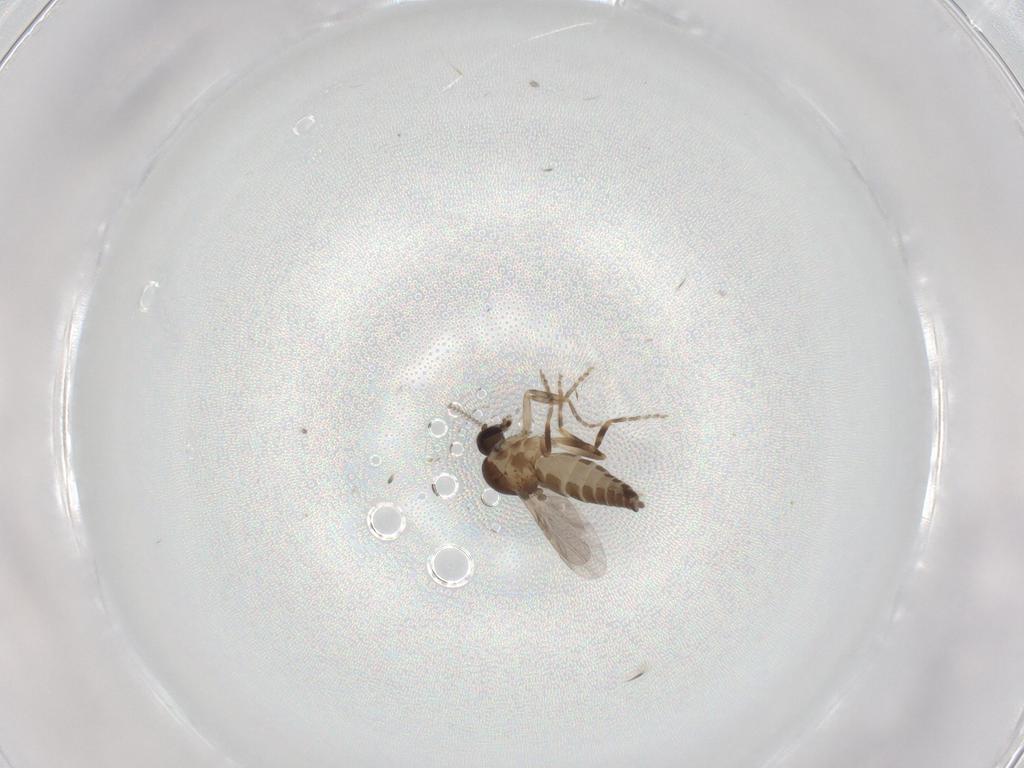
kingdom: Animalia
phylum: Arthropoda
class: Insecta
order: Diptera
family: Ceratopogonidae
